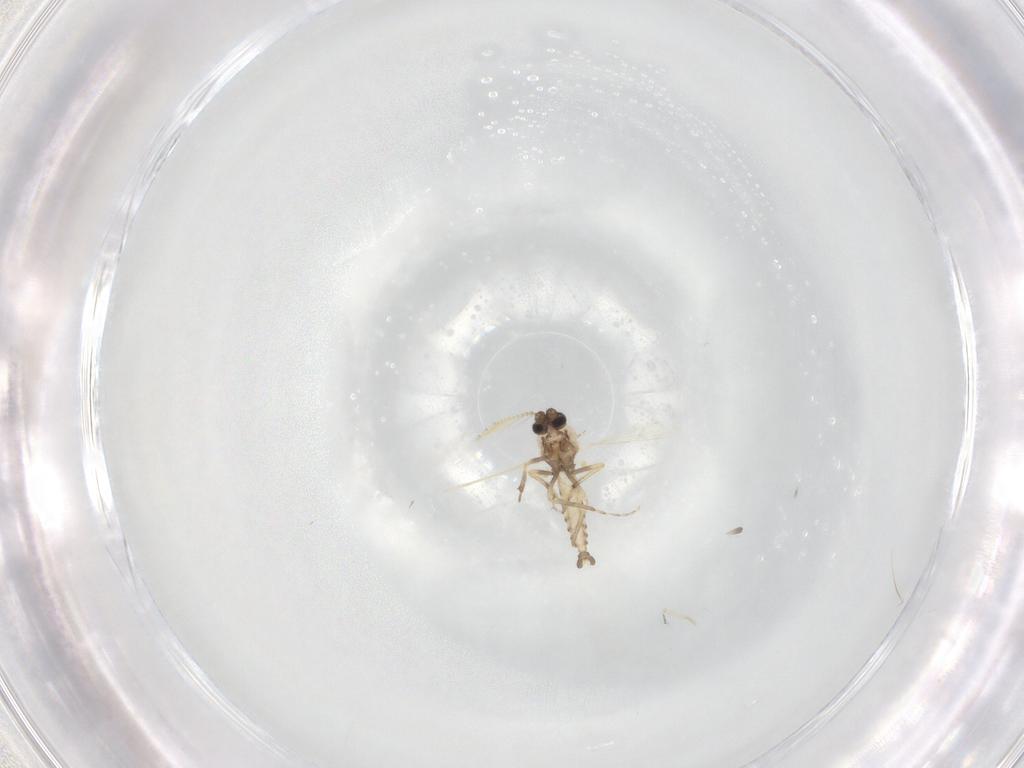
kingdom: Animalia
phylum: Arthropoda
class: Insecta
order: Diptera
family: Ceratopogonidae
